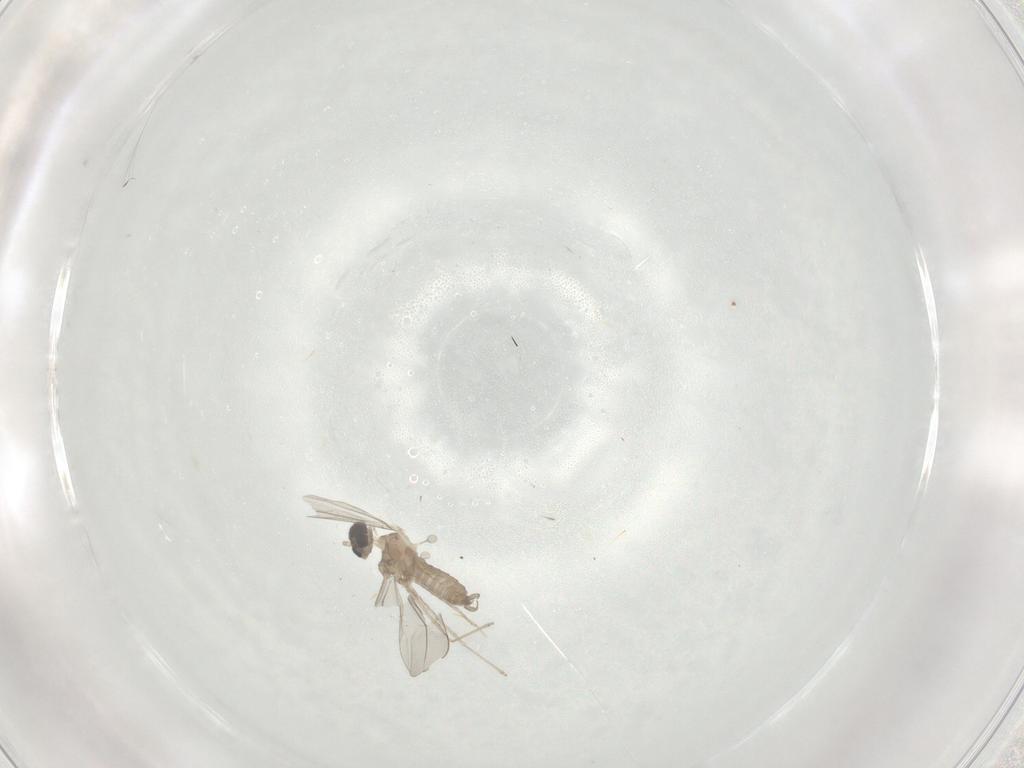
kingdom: Animalia
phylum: Arthropoda
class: Insecta
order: Diptera
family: Cecidomyiidae
